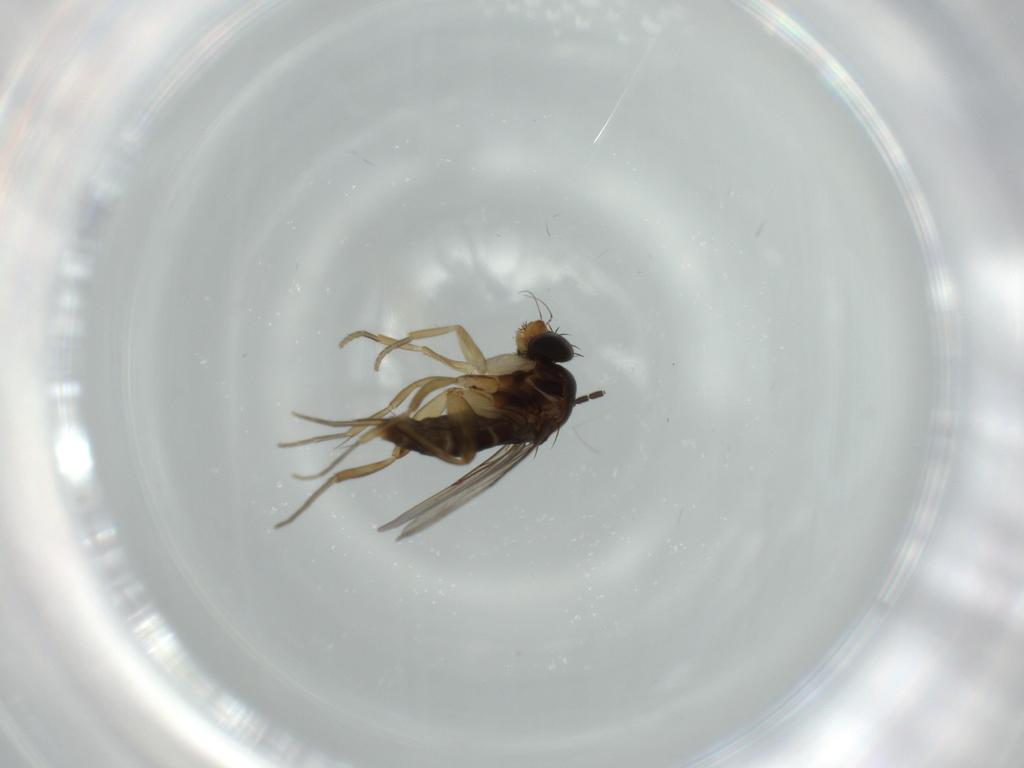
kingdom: Animalia
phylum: Arthropoda
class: Insecta
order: Diptera
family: Phoridae
